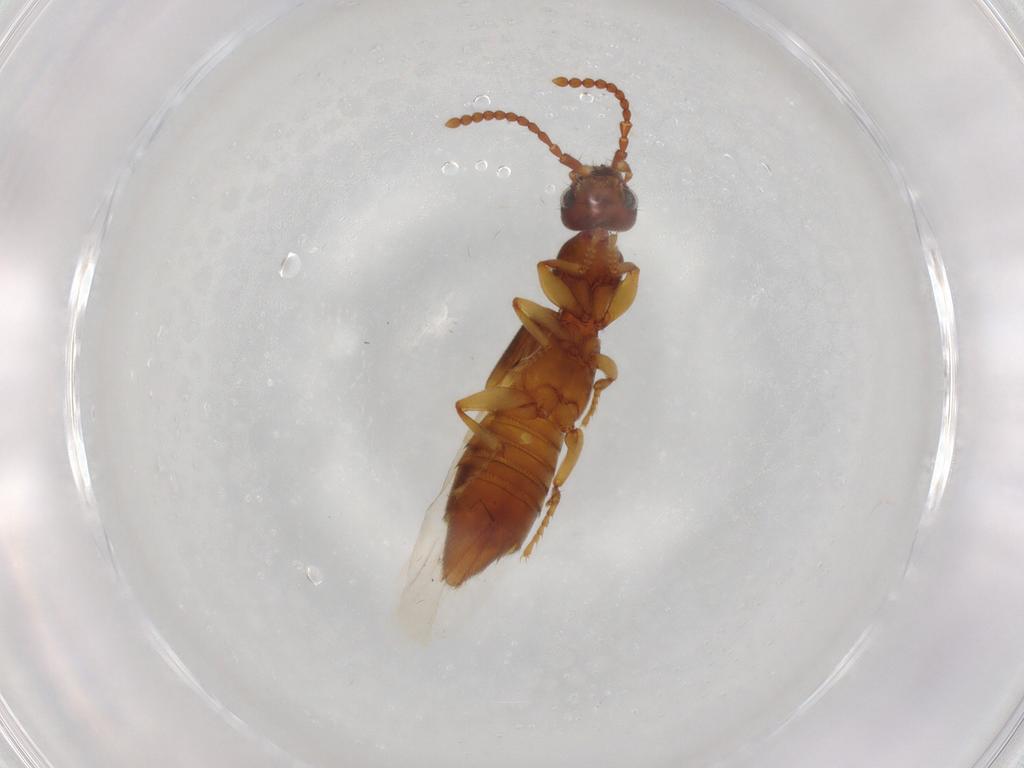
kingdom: Animalia
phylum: Arthropoda
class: Insecta
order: Coleoptera
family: Staphylinidae
